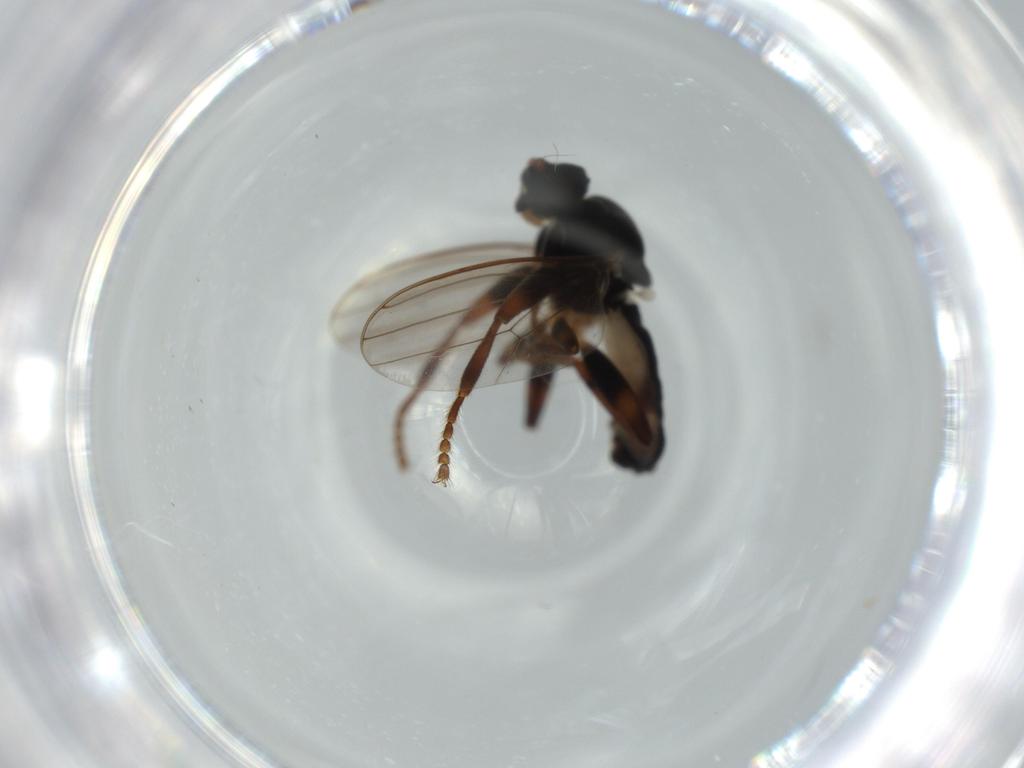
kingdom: Animalia
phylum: Arthropoda
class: Insecta
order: Diptera
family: Sphaeroceridae
